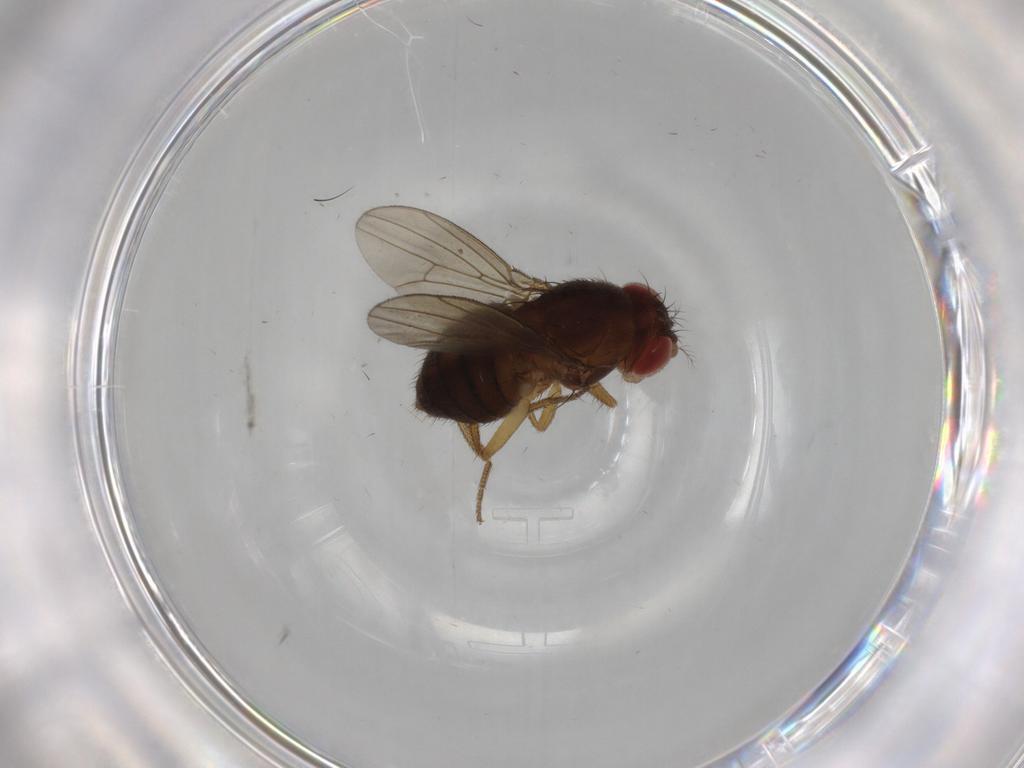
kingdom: Animalia
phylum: Arthropoda
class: Insecta
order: Diptera
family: Drosophilidae
